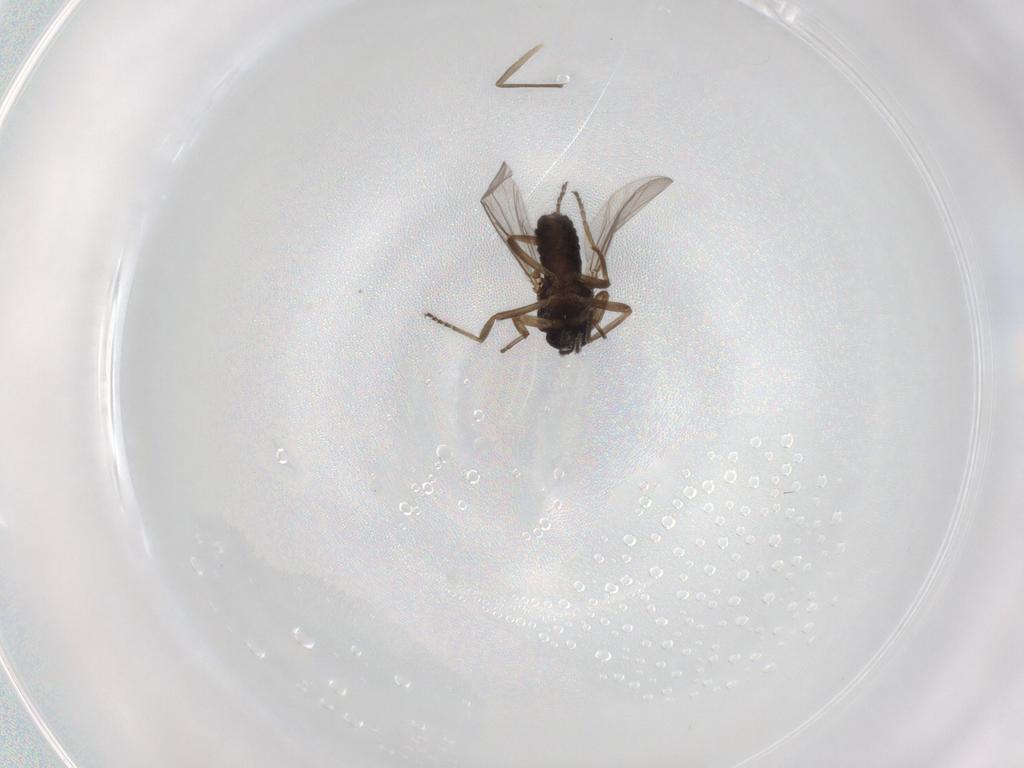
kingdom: Animalia
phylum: Arthropoda
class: Insecta
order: Diptera
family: Ceratopogonidae
